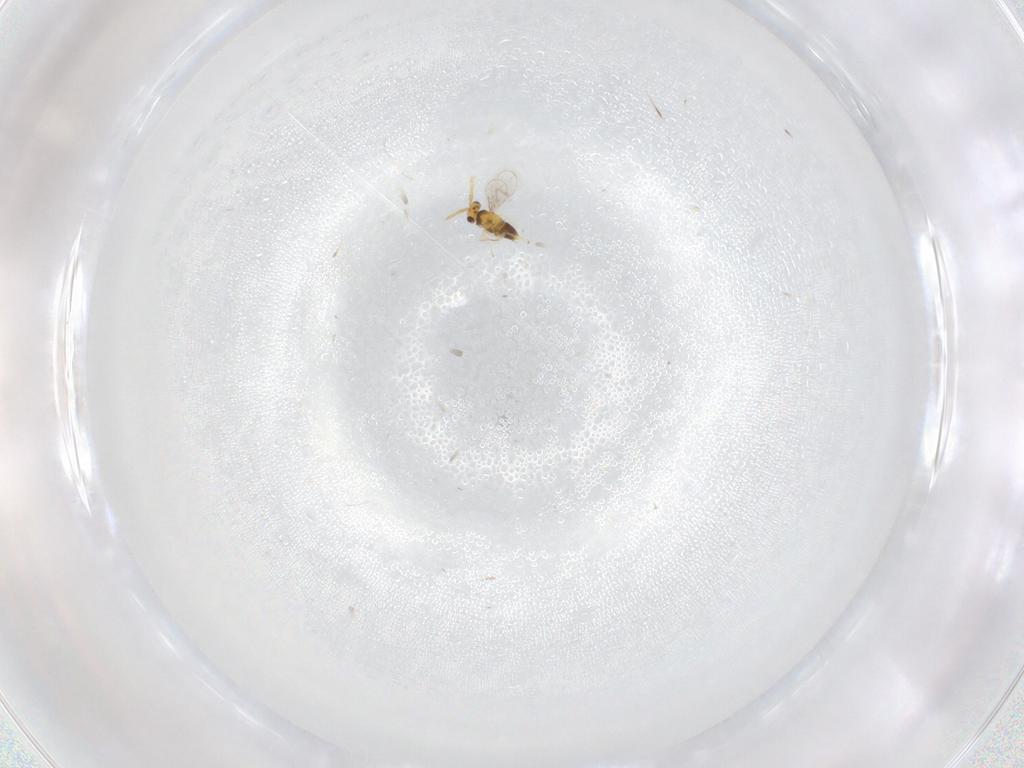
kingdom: Animalia
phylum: Arthropoda
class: Insecta
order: Hymenoptera
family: Aphelinidae
